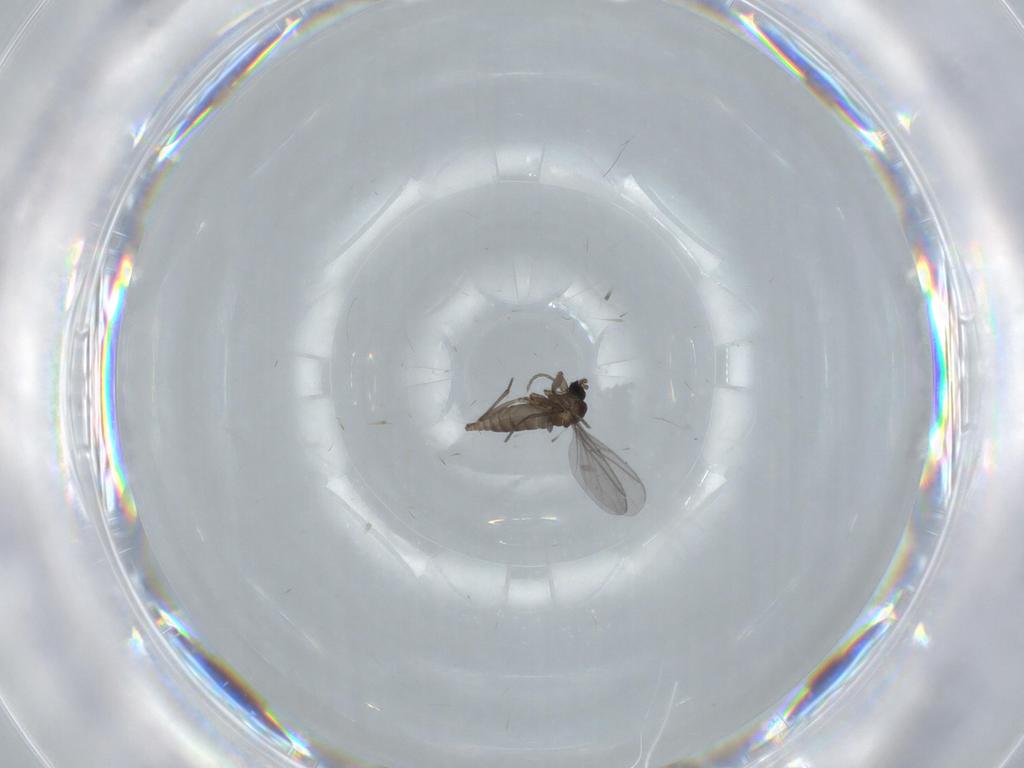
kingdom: Animalia
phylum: Arthropoda
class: Insecta
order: Diptera
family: Sciaridae
